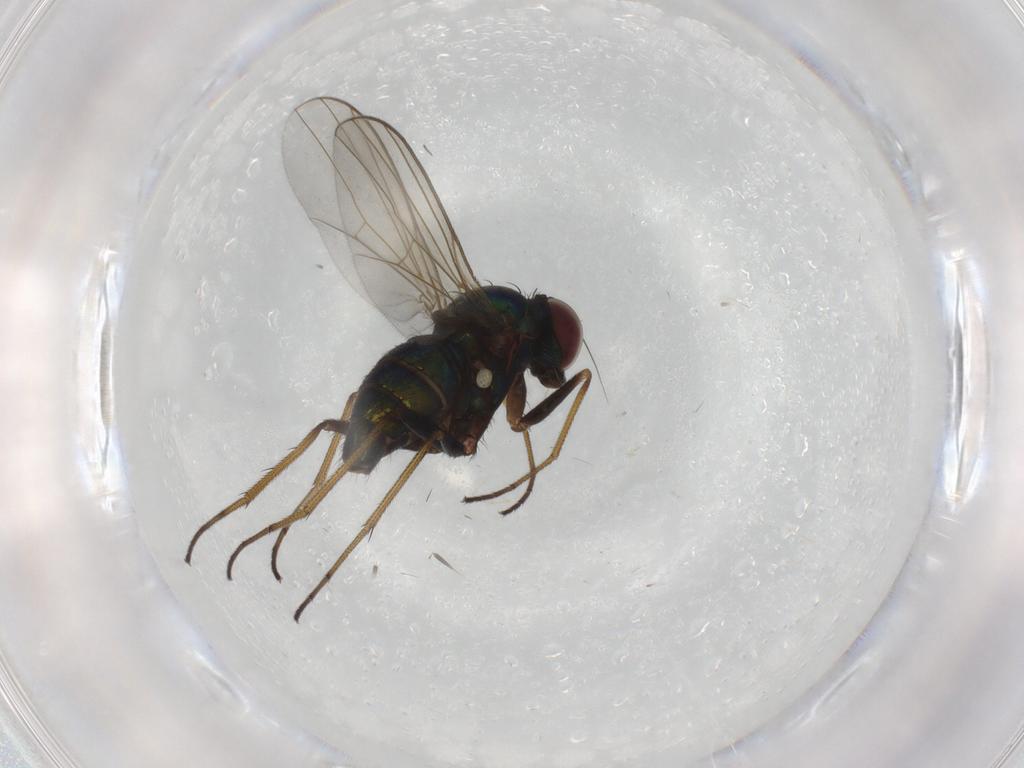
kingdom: Animalia
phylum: Arthropoda
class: Insecta
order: Diptera
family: Dolichopodidae
